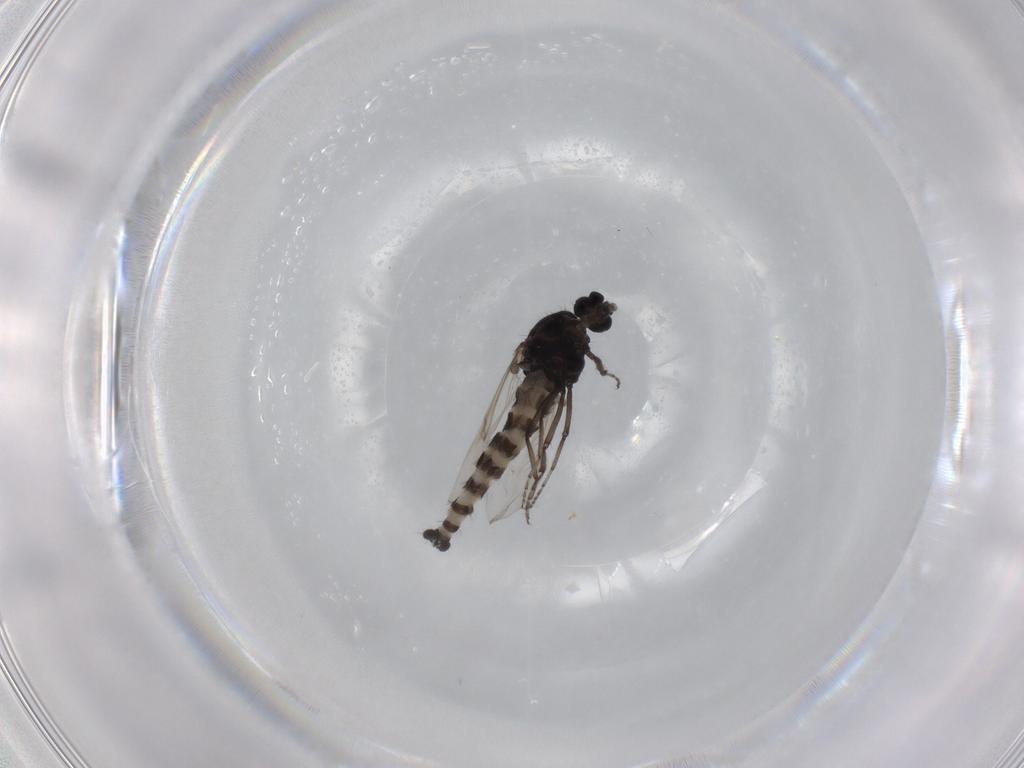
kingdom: Animalia
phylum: Arthropoda
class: Insecta
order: Diptera
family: Ceratopogonidae
